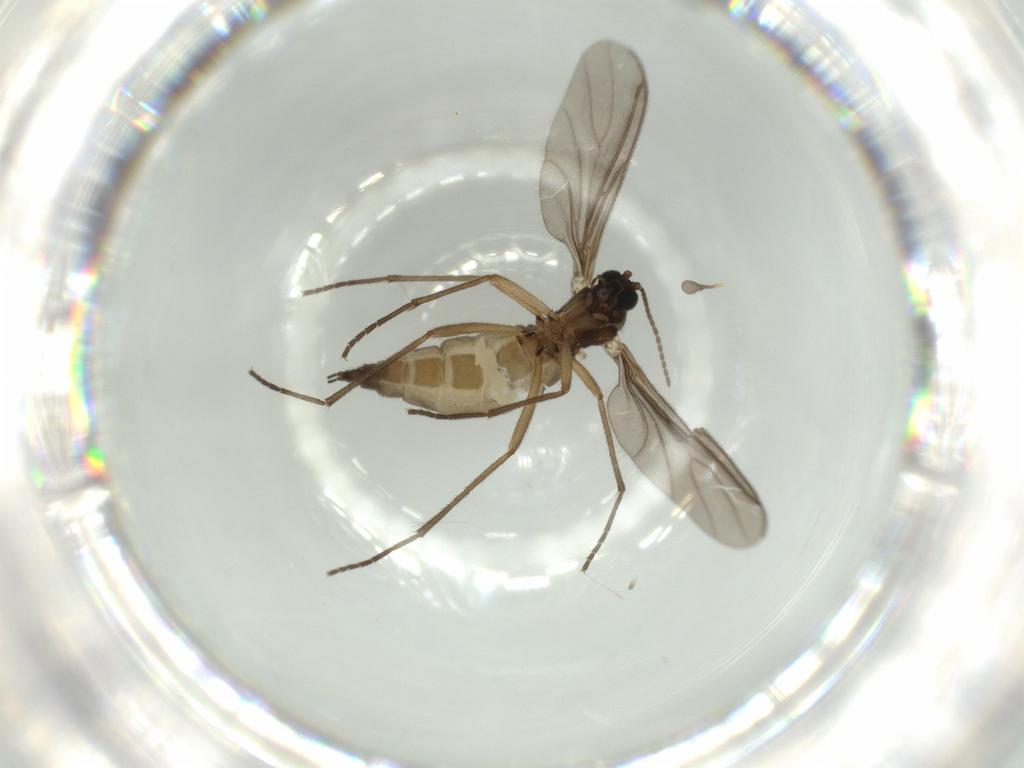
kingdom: Animalia
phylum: Arthropoda
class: Insecta
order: Diptera
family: Sciaridae
